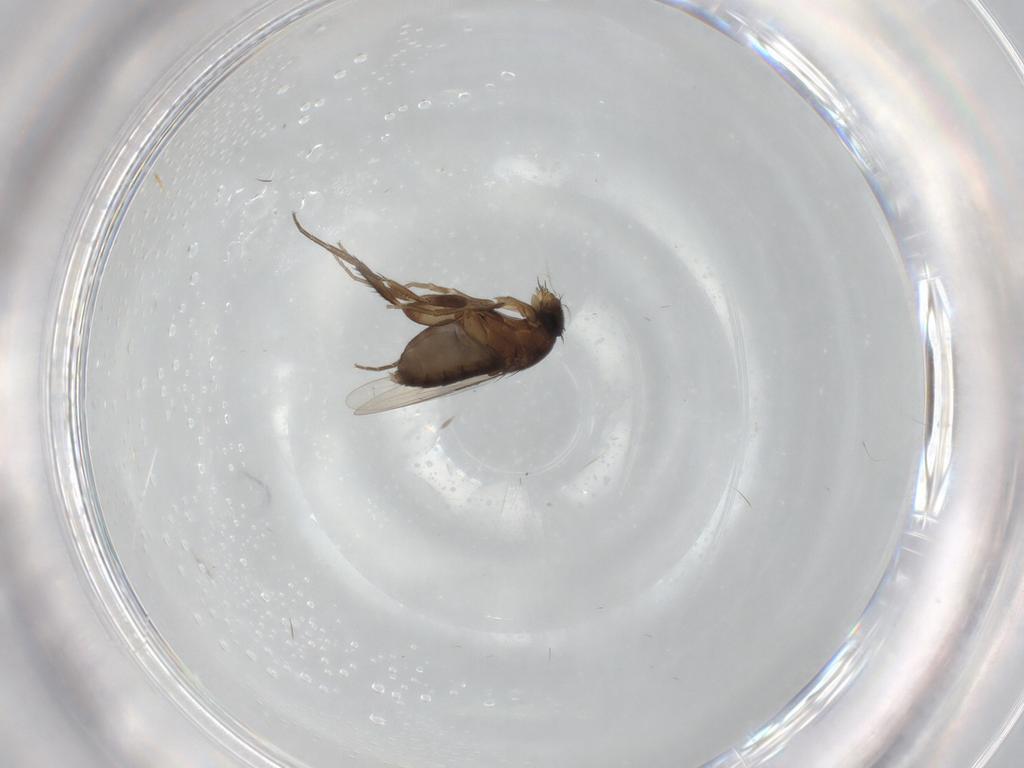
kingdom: Animalia
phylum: Arthropoda
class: Insecta
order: Diptera
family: Phoridae
